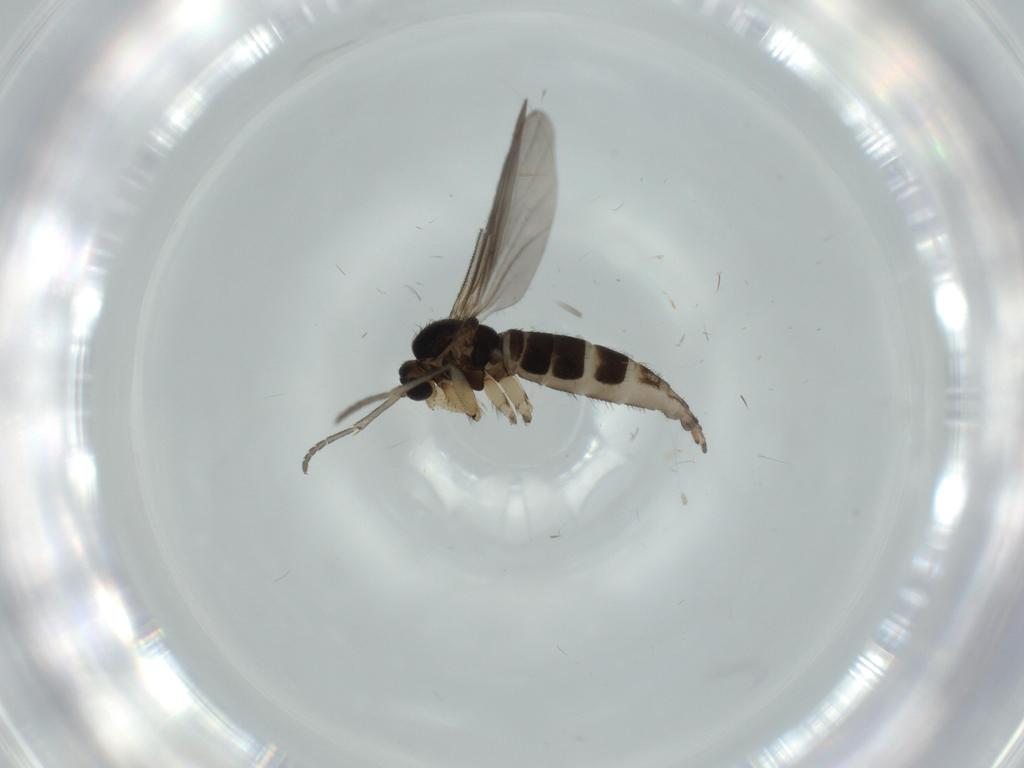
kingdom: Animalia
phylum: Arthropoda
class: Insecta
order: Diptera
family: Sciaridae
